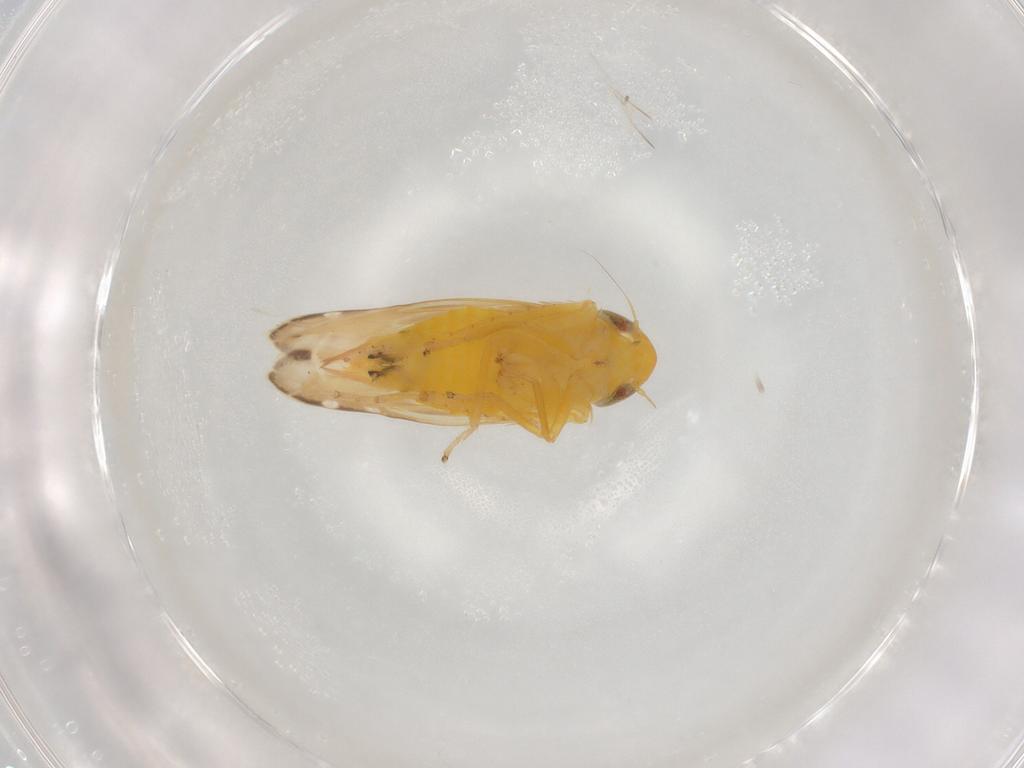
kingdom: Animalia
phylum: Arthropoda
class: Insecta
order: Hemiptera
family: Cicadellidae
